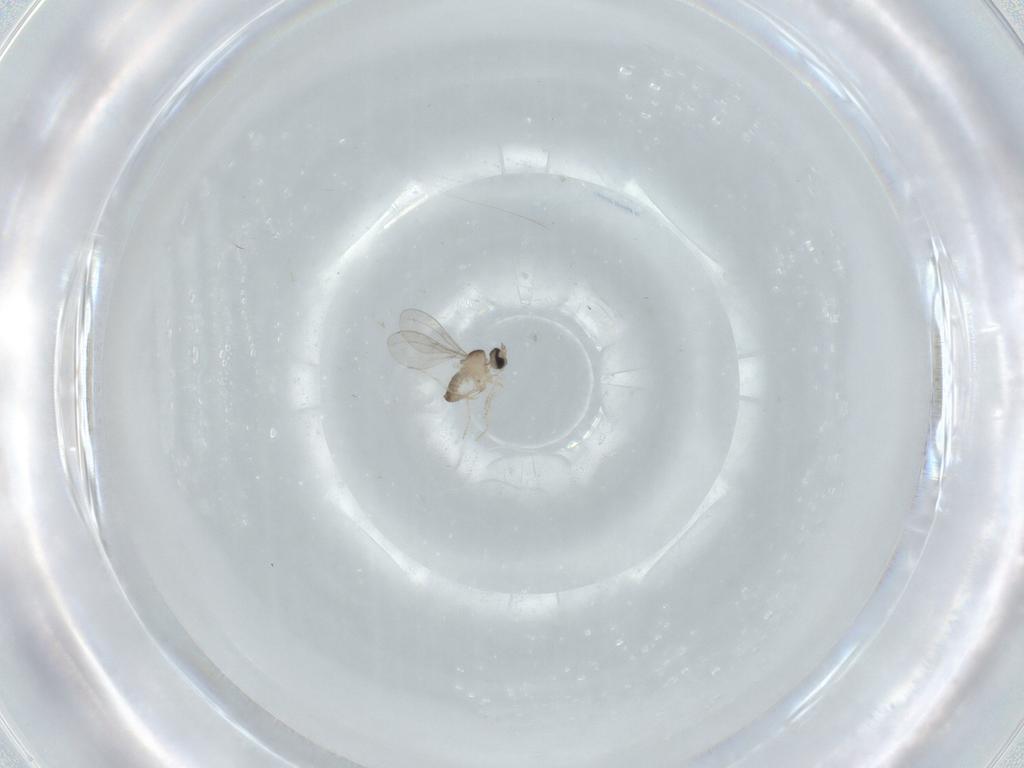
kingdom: Animalia
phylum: Arthropoda
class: Insecta
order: Diptera
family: Cecidomyiidae
